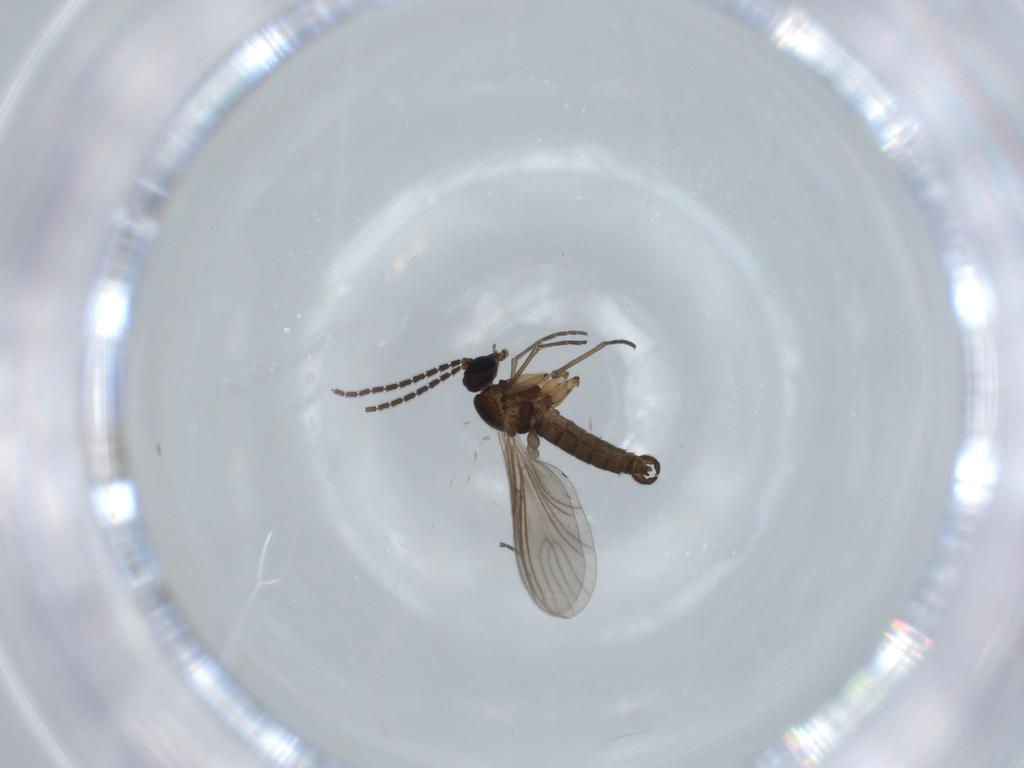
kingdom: Animalia
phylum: Arthropoda
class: Insecta
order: Diptera
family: Sciaridae
